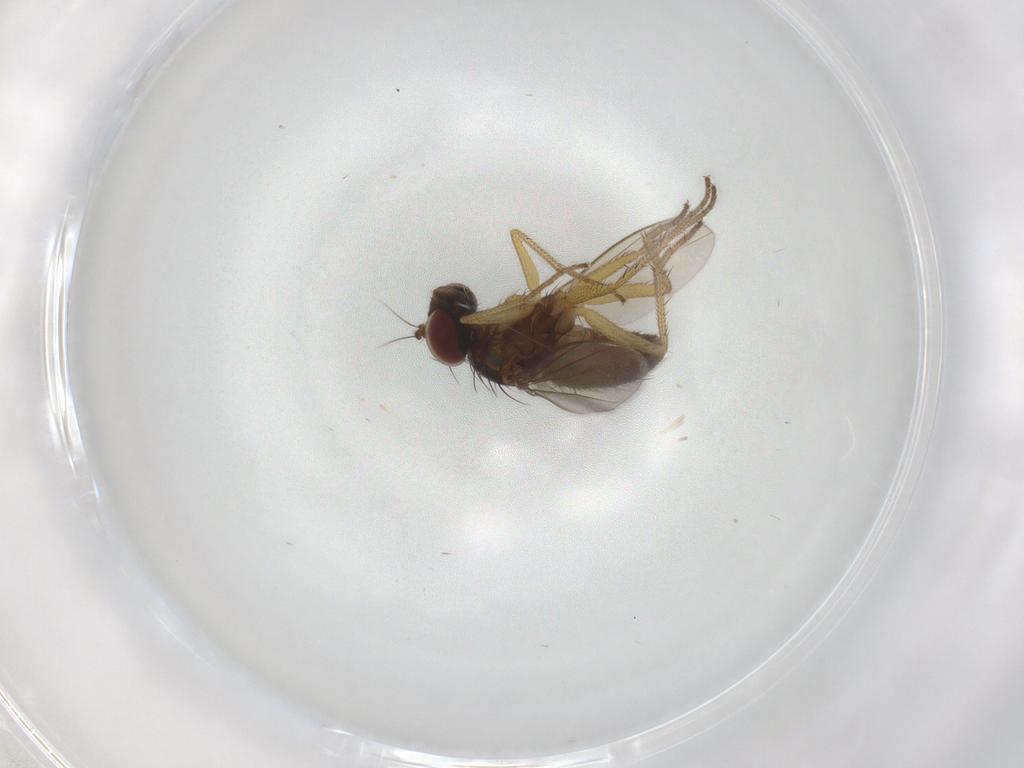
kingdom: Animalia
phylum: Arthropoda
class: Insecta
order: Diptera
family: Dolichopodidae
